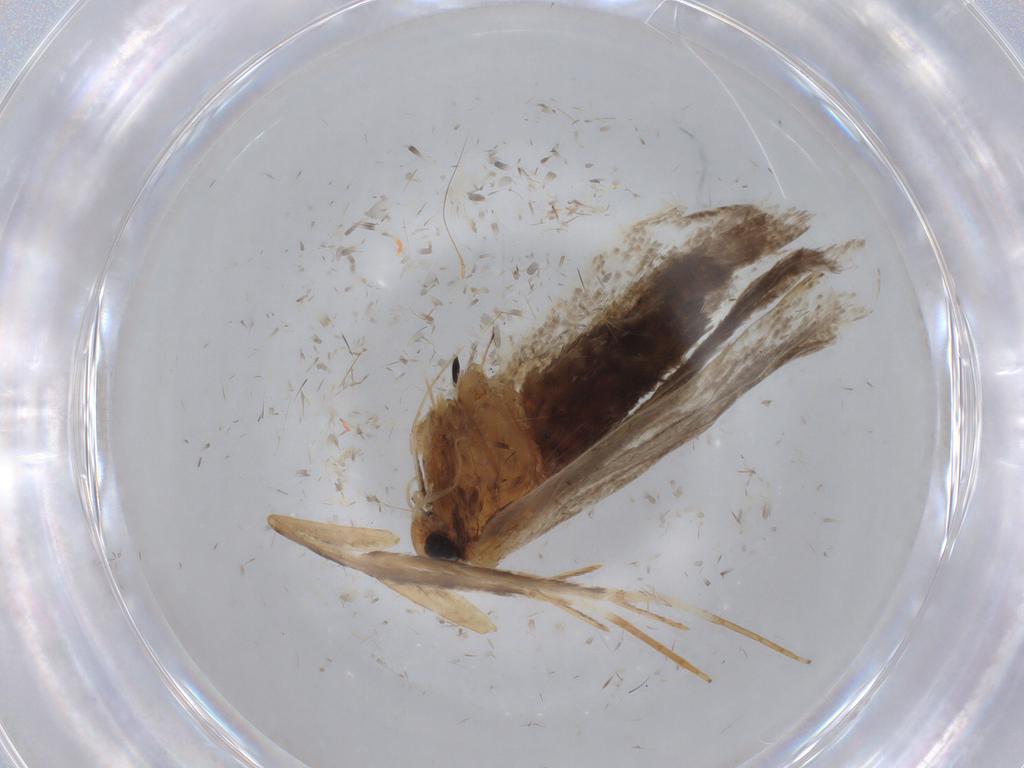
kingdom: Animalia
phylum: Arthropoda
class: Insecta
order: Lepidoptera
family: Lecithoceridae
